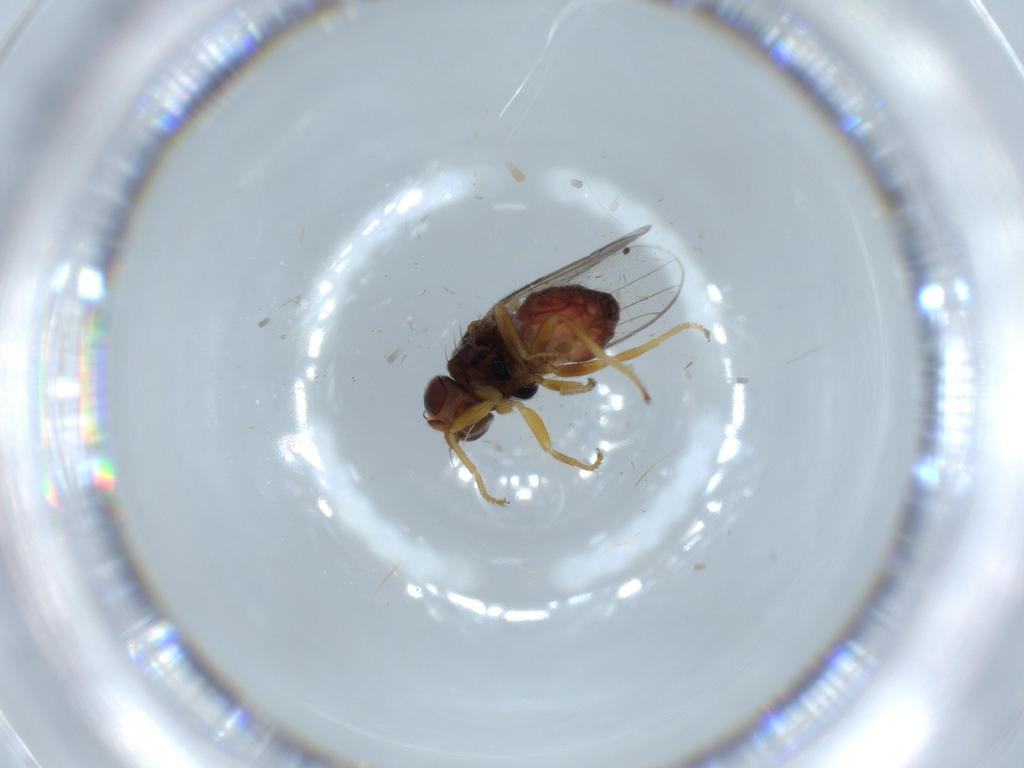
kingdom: Animalia
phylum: Arthropoda
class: Insecta
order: Diptera
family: Chloropidae
